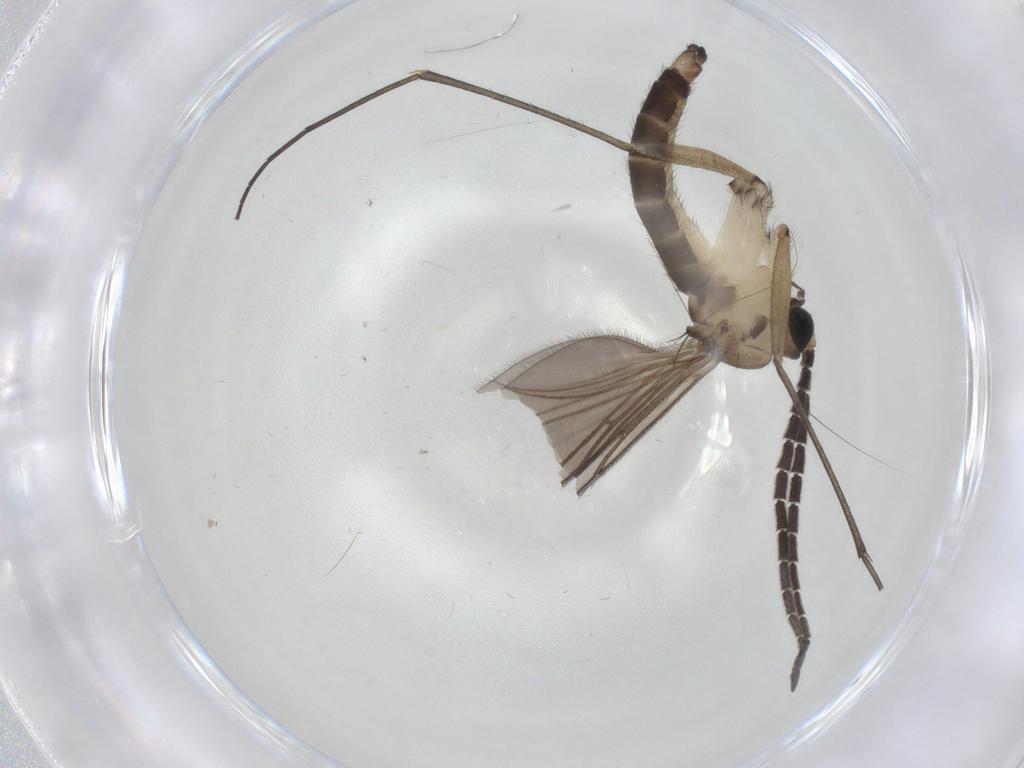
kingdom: Animalia
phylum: Arthropoda
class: Insecta
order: Diptera
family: Sciaridae
